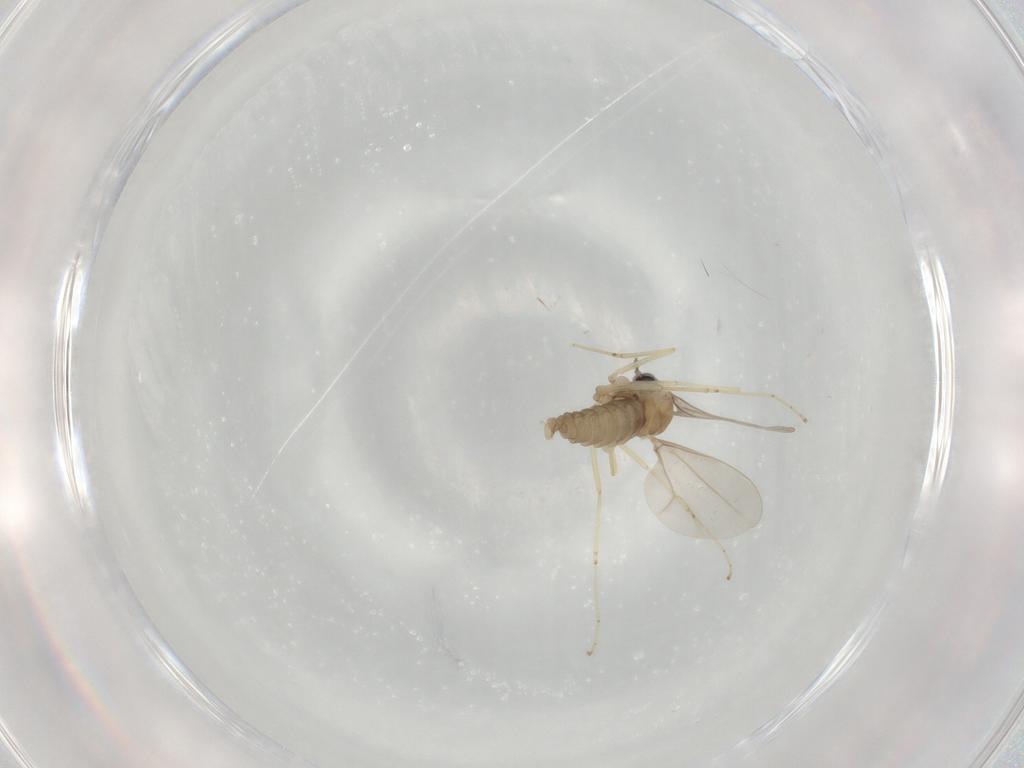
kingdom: Animalia
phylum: Arthropoda
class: Insecta
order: Diptera
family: Cecidomyiidae
